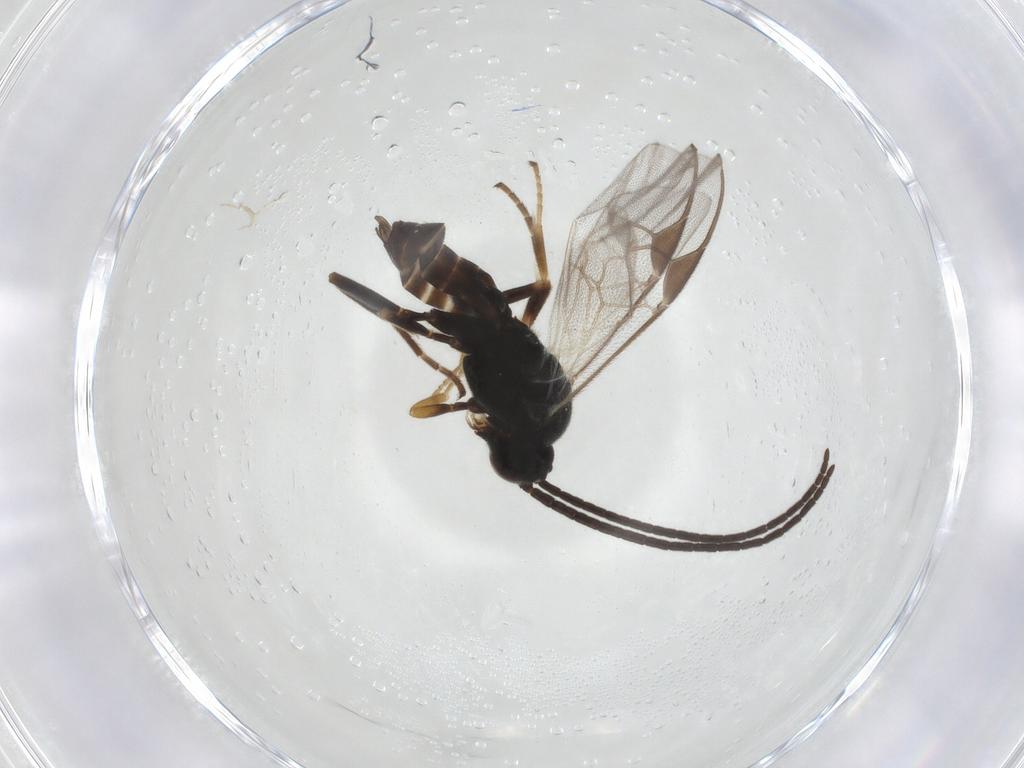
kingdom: Animalia
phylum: Arthropoda
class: Insecta
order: Hymenoptera
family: Braconidae
